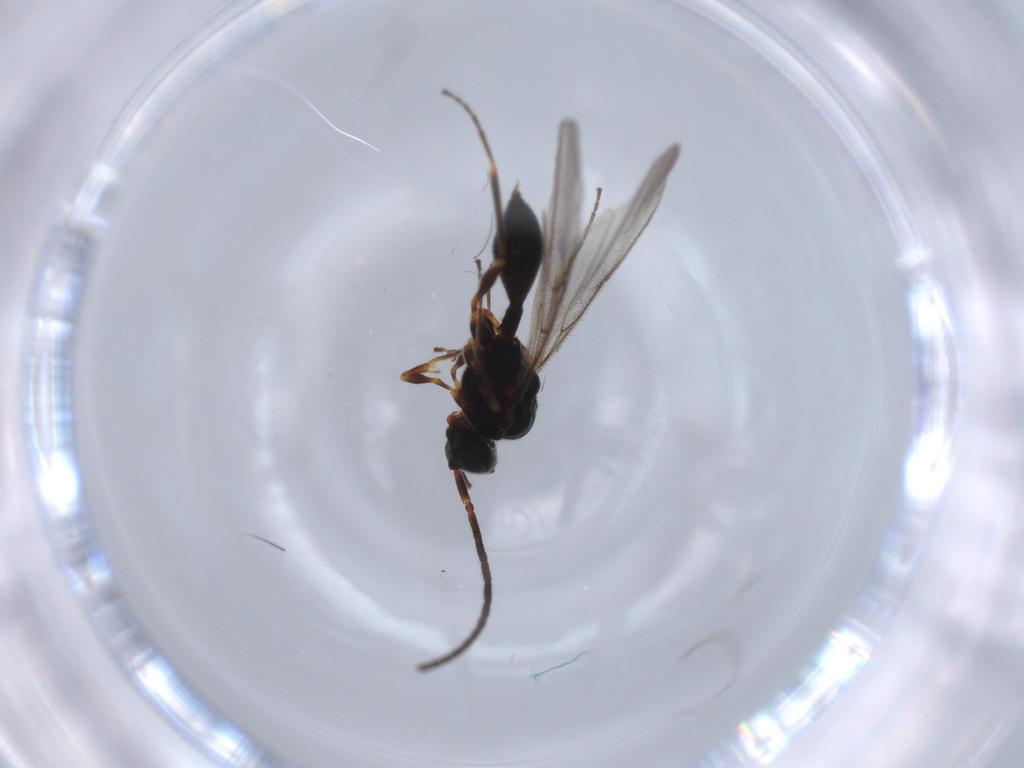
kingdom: Animalia
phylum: Arthropoda
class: Insecta
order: Hymenoptera
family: Diapriidae
